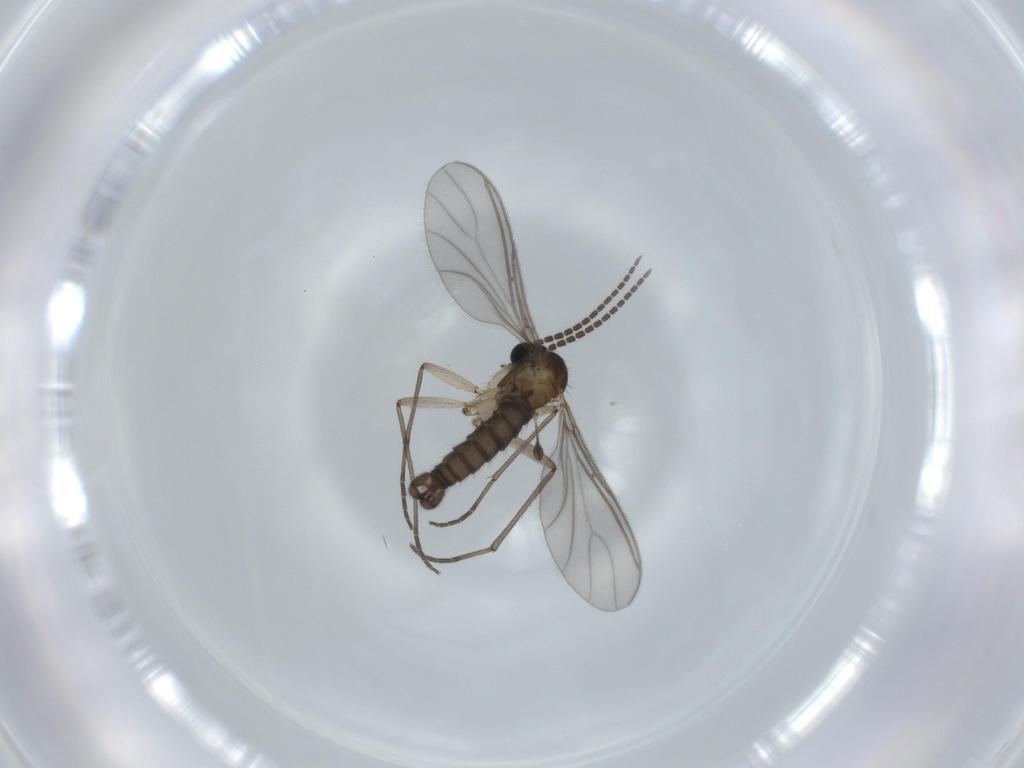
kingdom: Animalia
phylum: Arthropoda
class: Insecta
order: Diptera
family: Sciaridae
